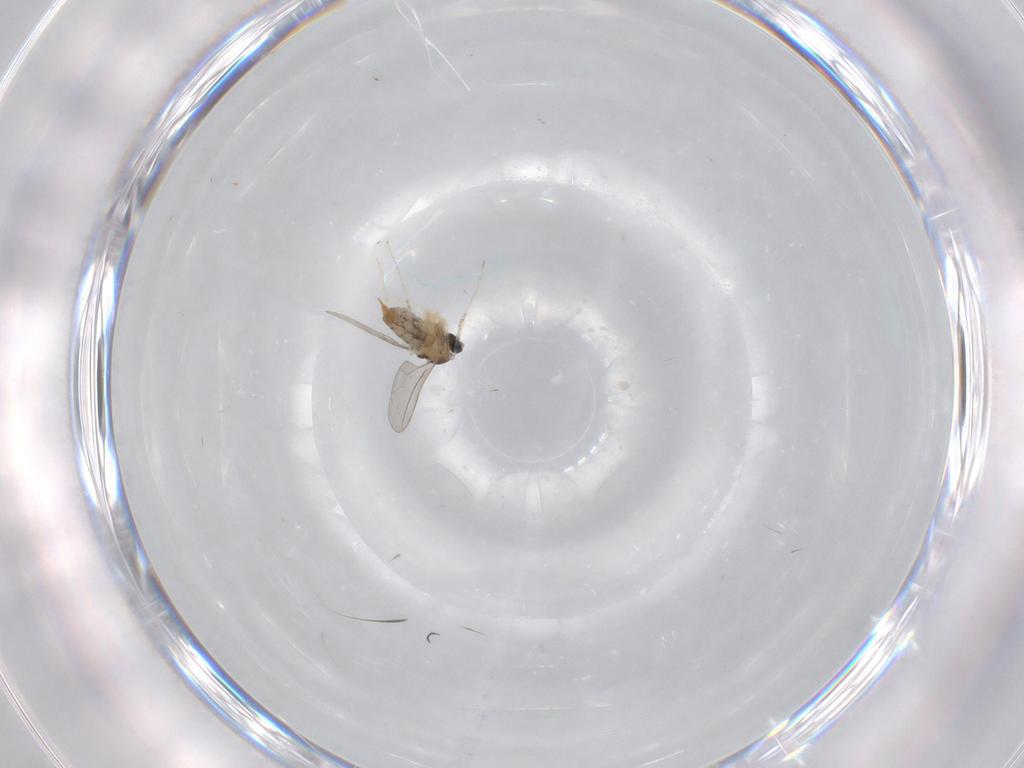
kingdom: Animalia
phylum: Arthropoda
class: Insecta
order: Diptera
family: Cecidomyiidae
